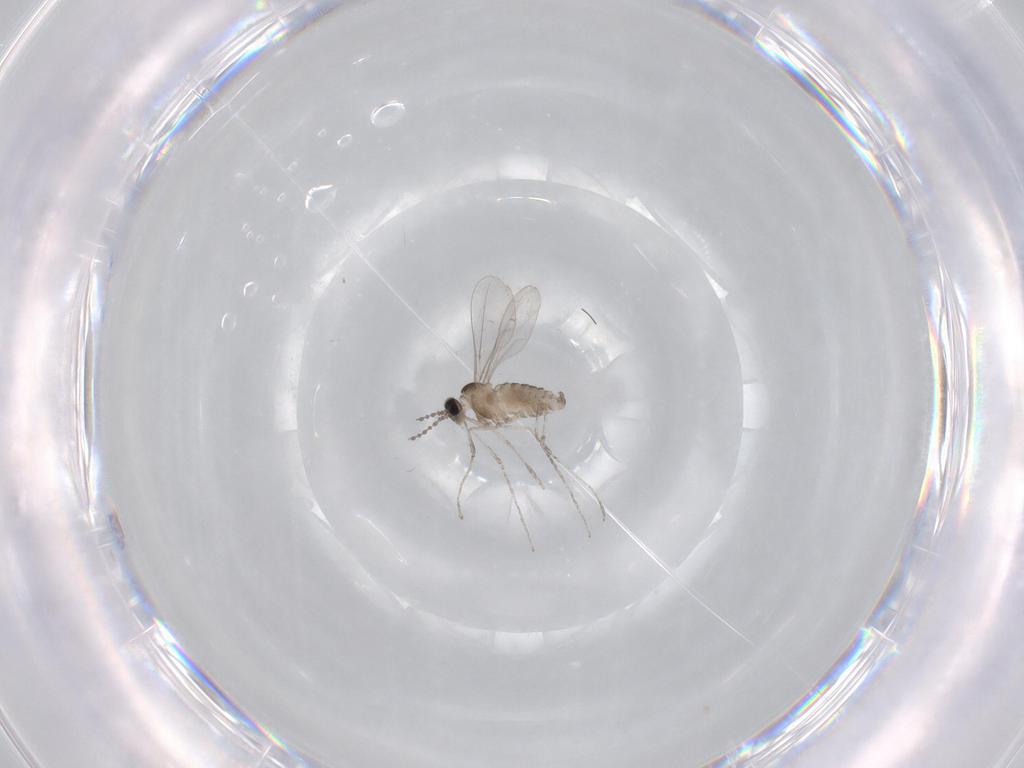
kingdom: Animalia
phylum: Arthropoda
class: Insecta
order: Diptera
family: Cecidomyiidae
